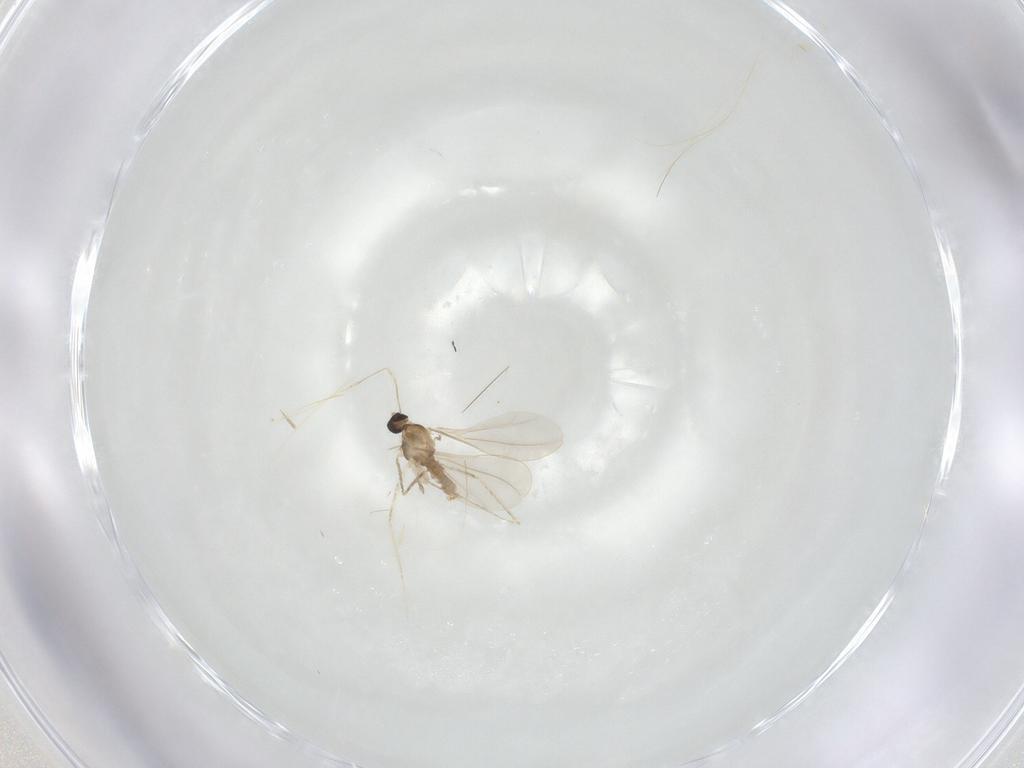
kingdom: Animalia
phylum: Arthropoda
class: Insecta
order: Diptera
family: Cecidomyiidae
